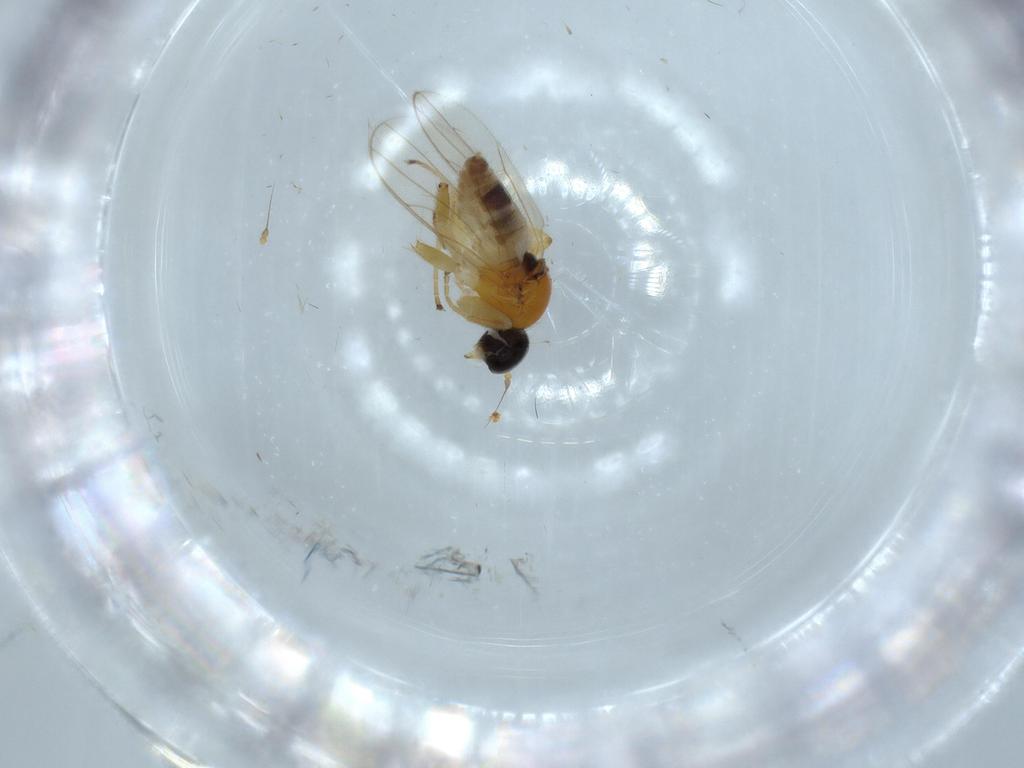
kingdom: Animalia
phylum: Arthropoda
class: Insecta
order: Diptera
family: Hybotidae
